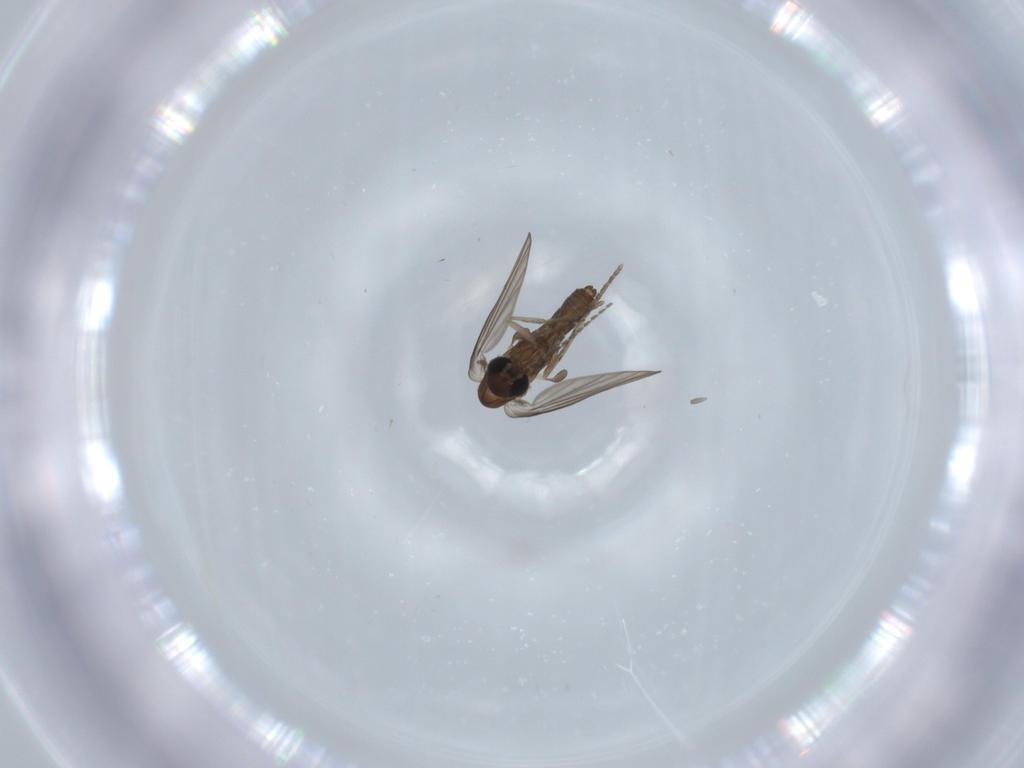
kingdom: Animalia
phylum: Arthropoda
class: Insecta
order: Diptera
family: Psychodidae
